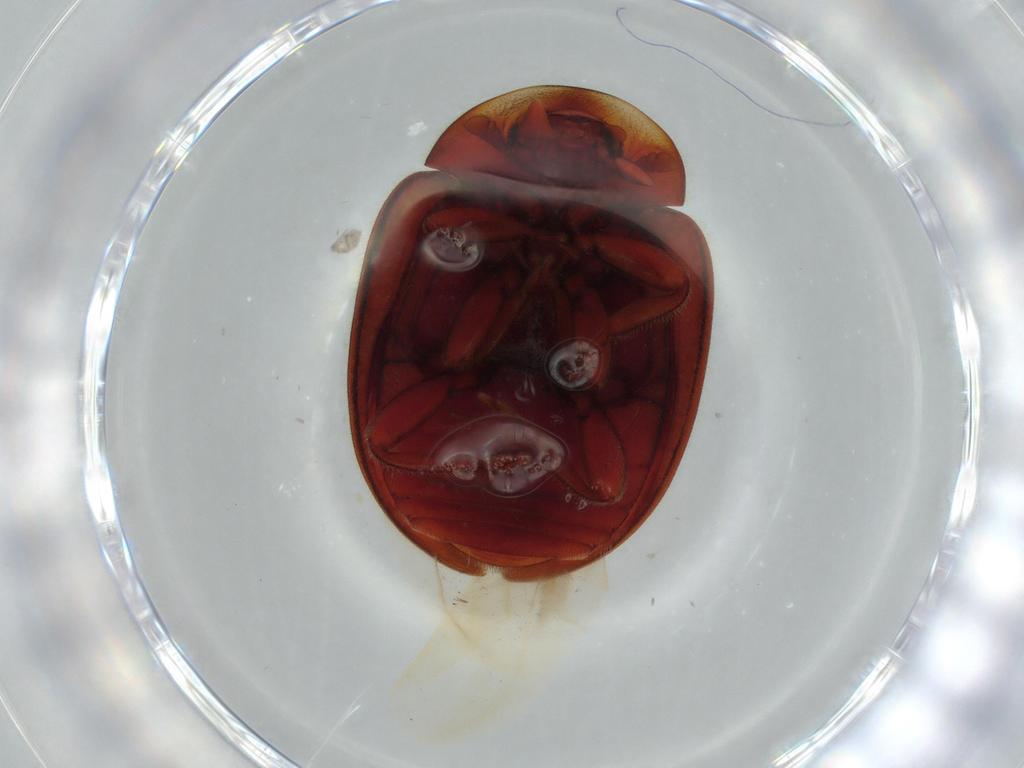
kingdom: Animalia
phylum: Arthropoda
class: Insecta
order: Coleoptera
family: Coccinellidae
